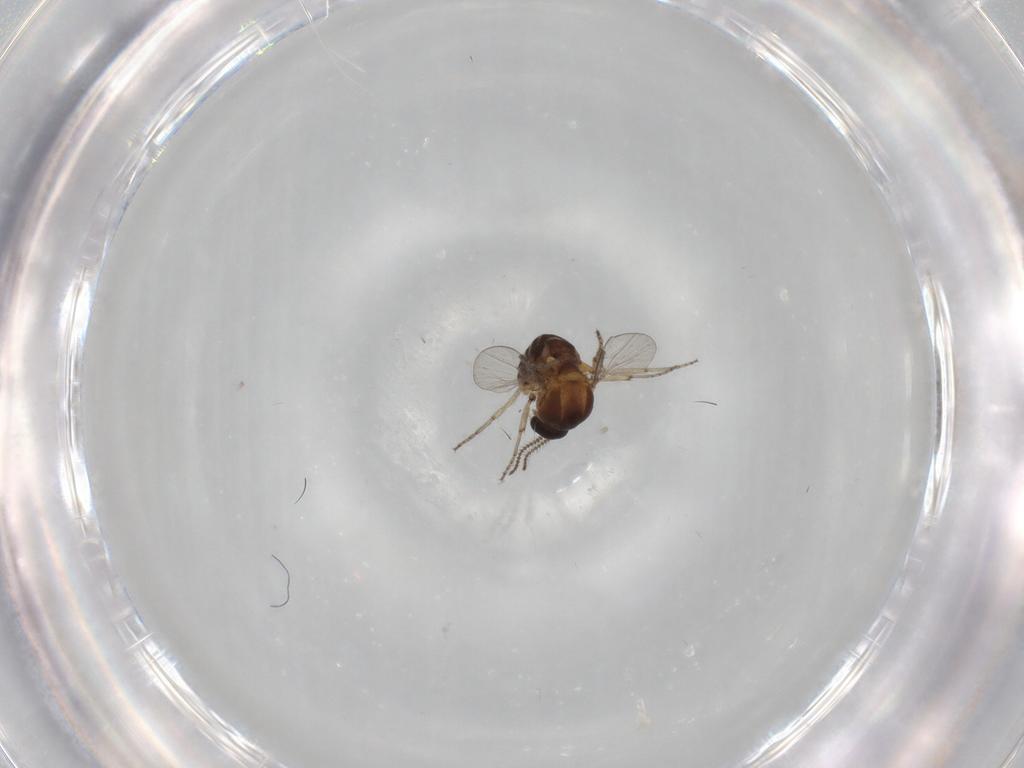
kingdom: Animalia
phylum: Arthropoda
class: Insecta
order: Diptera
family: Ceratopogonidae
